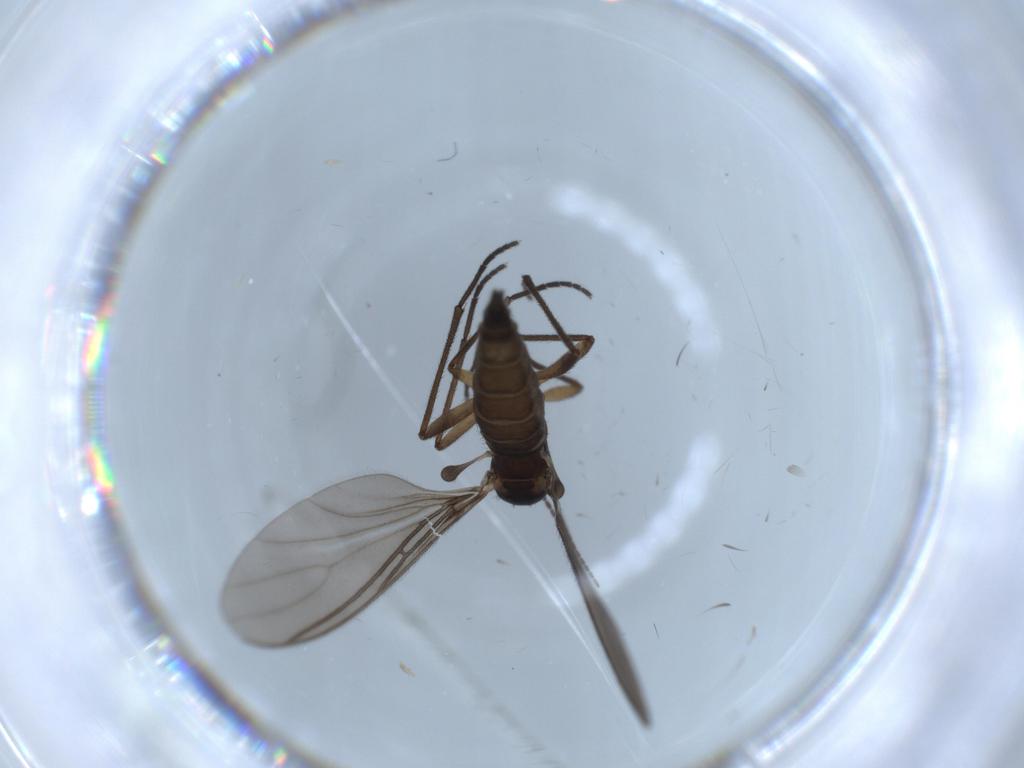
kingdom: Animalia
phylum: Arthropoda
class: Insecta
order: Diptera
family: Sciaridae
